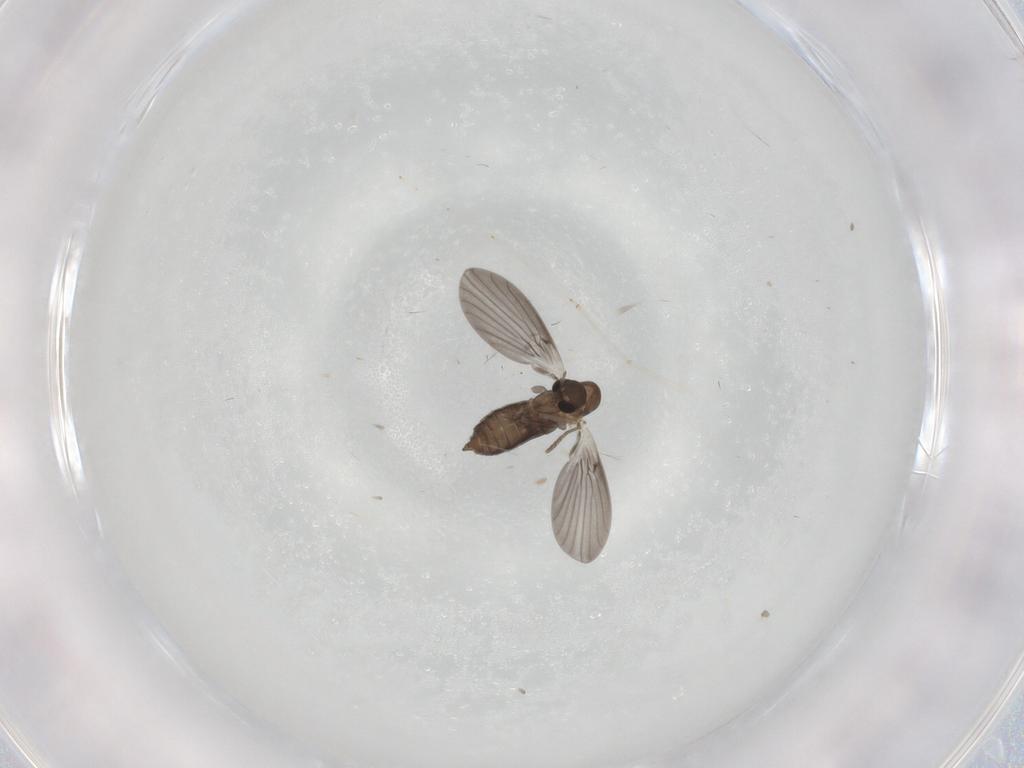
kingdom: Animalia
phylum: Arthropoda
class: Insecta
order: Diptera
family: Cecidomyiidae
